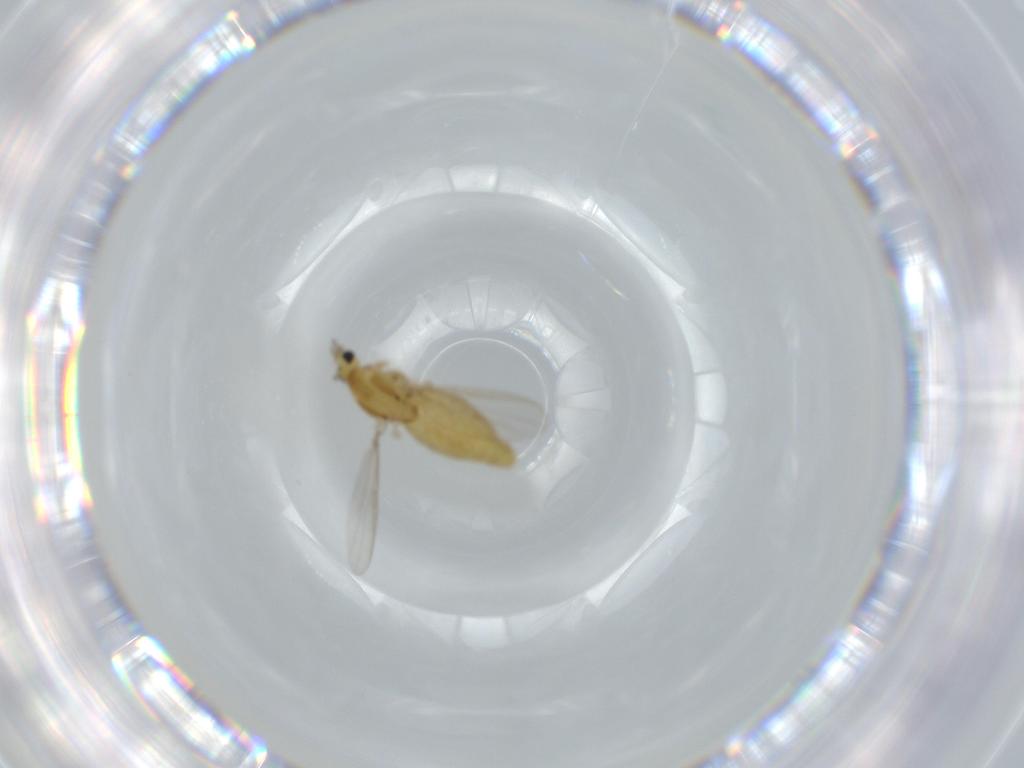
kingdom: Animalia
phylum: Arthropoda
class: Insecta
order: Diptera
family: Chironomidae
